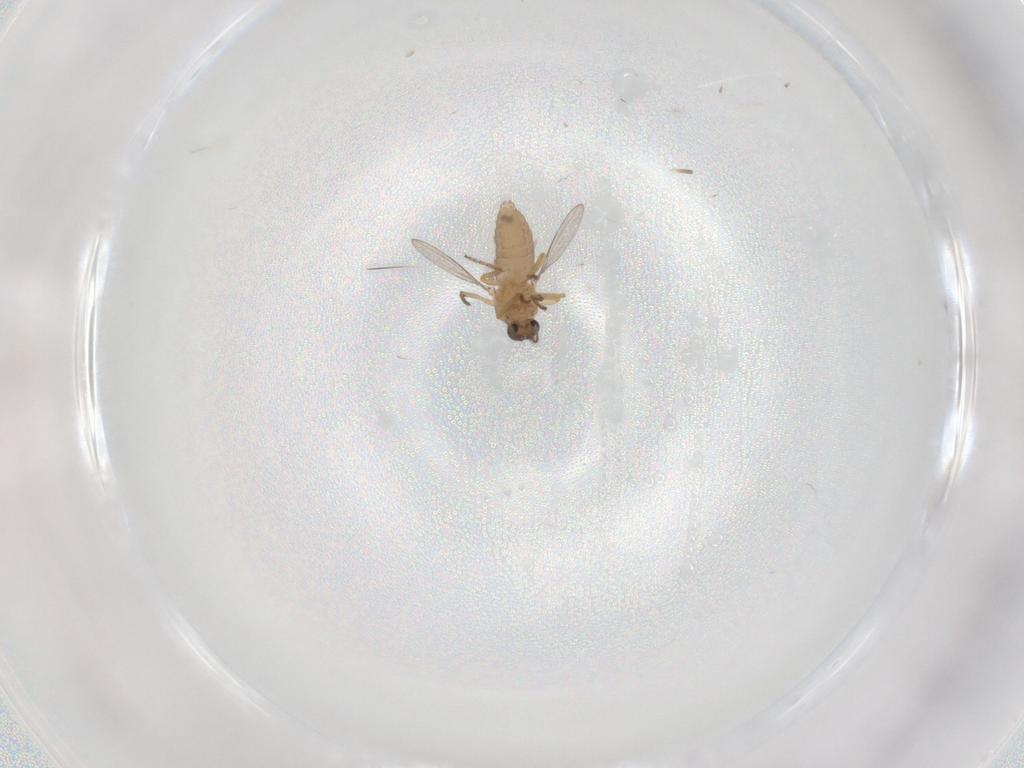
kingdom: Animalia
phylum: Arthropoda
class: Insecta
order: Diptera
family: Ceratopogonidae
